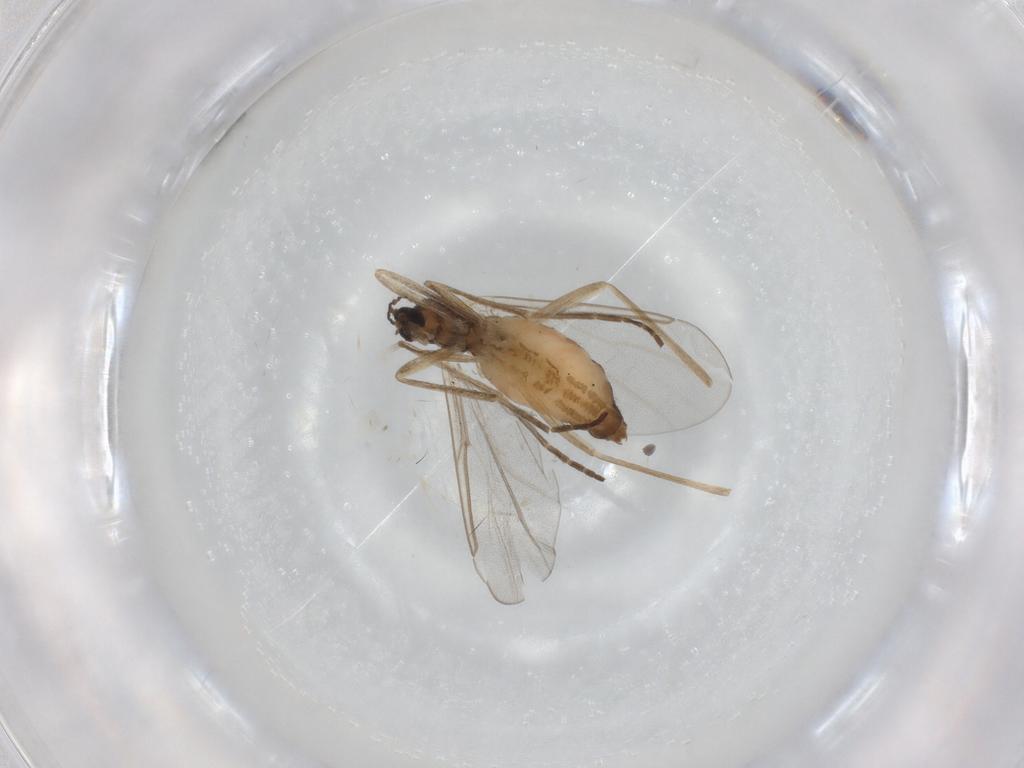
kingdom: Animalia
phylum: Arthropoda
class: Insecta
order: Diptera
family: Cecidomyiidae
